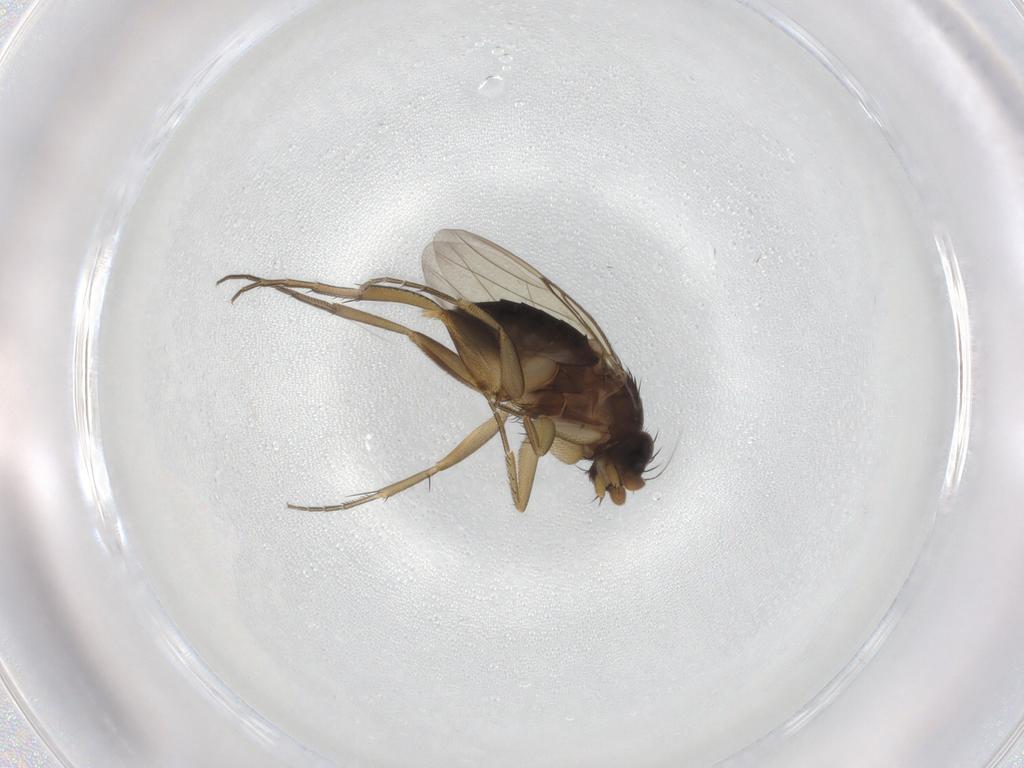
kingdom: Animalia
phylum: Arthropoda
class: Insecta
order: Diptera
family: Phoridae
